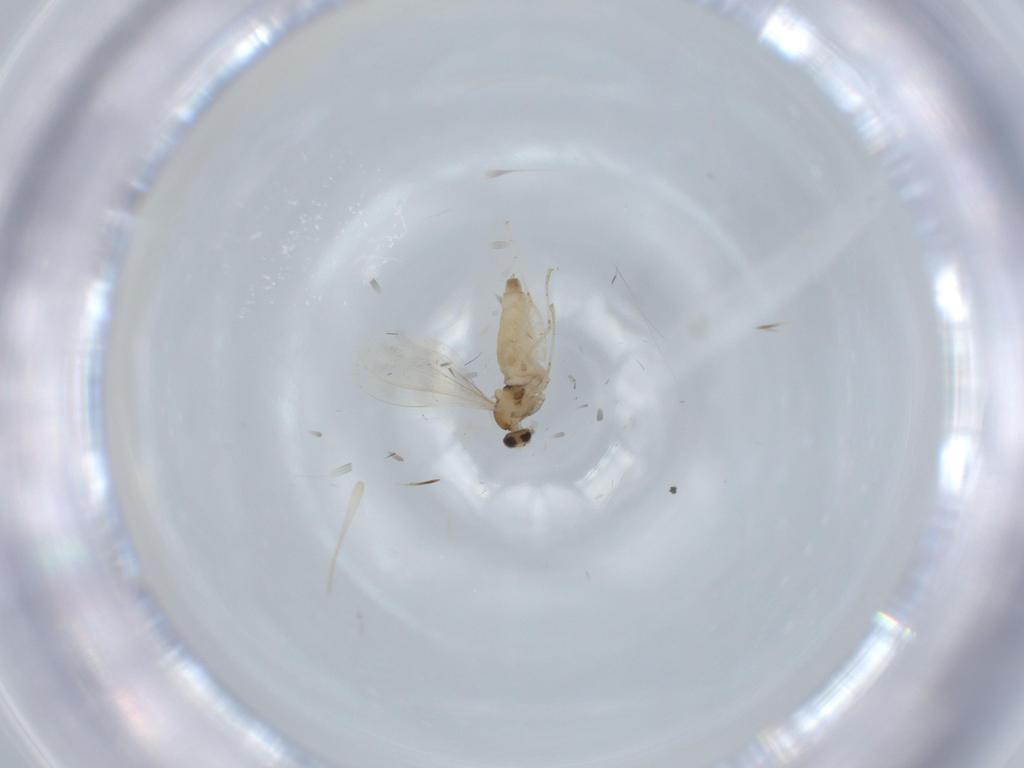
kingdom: Animalia
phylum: Arthropoda
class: Insecta
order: Diptera
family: Cecidomyiidae
